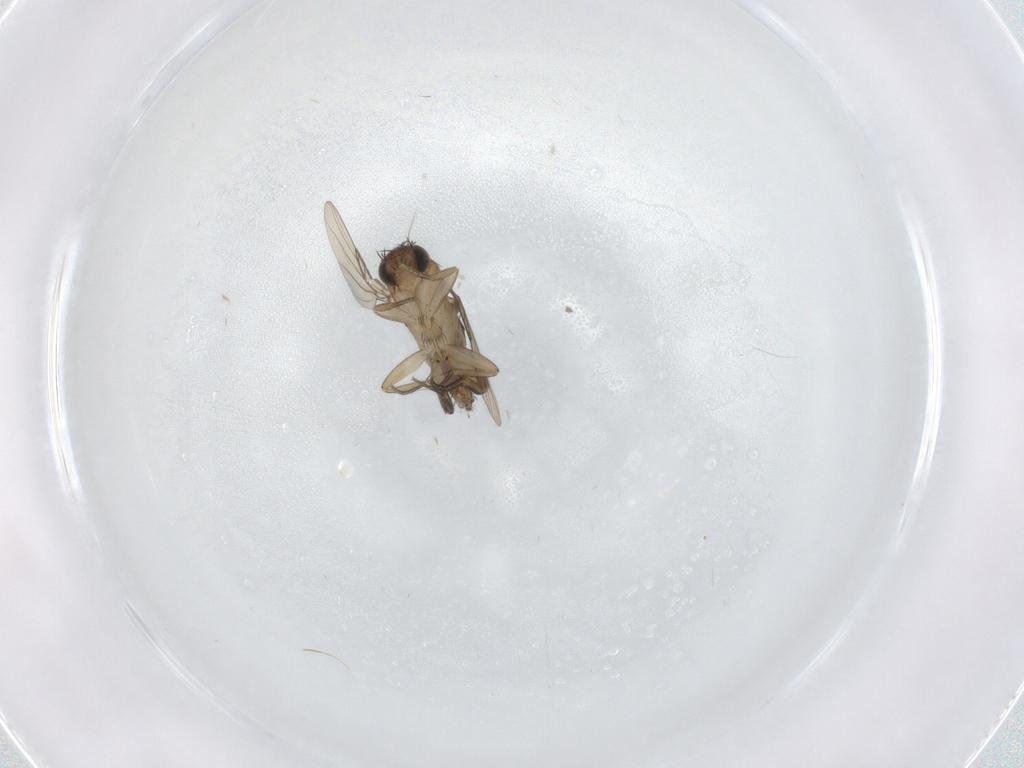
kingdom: Animalia
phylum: Arthropoda
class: Insecta
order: Diptera
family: Phoridae
